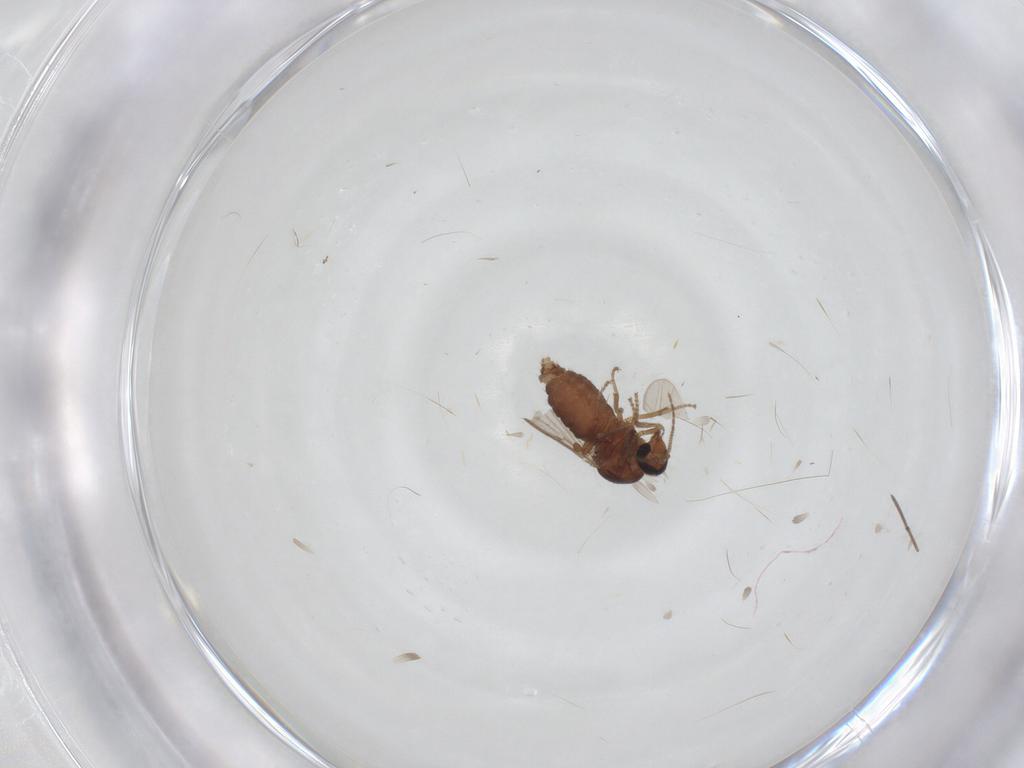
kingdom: Animalia
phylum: Arthropoda
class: Insecta
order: Diptera
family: Ceratopogonidae
